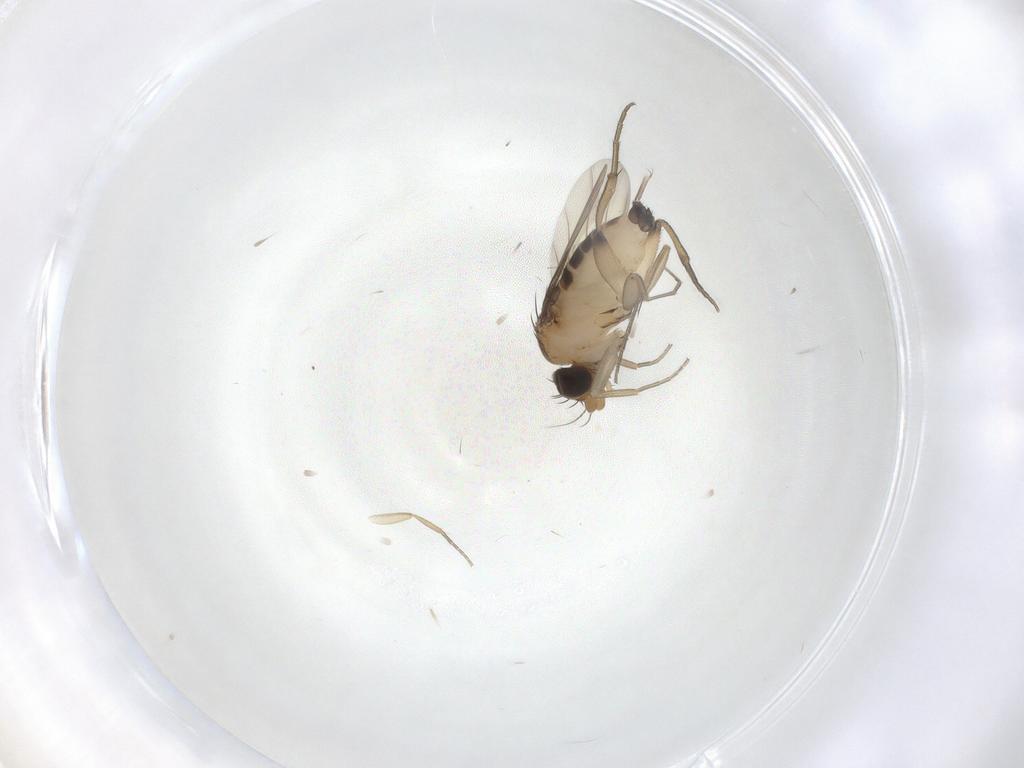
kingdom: Animalia
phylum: Arthropoda
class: Insecta
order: Diptera
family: Phoridae
